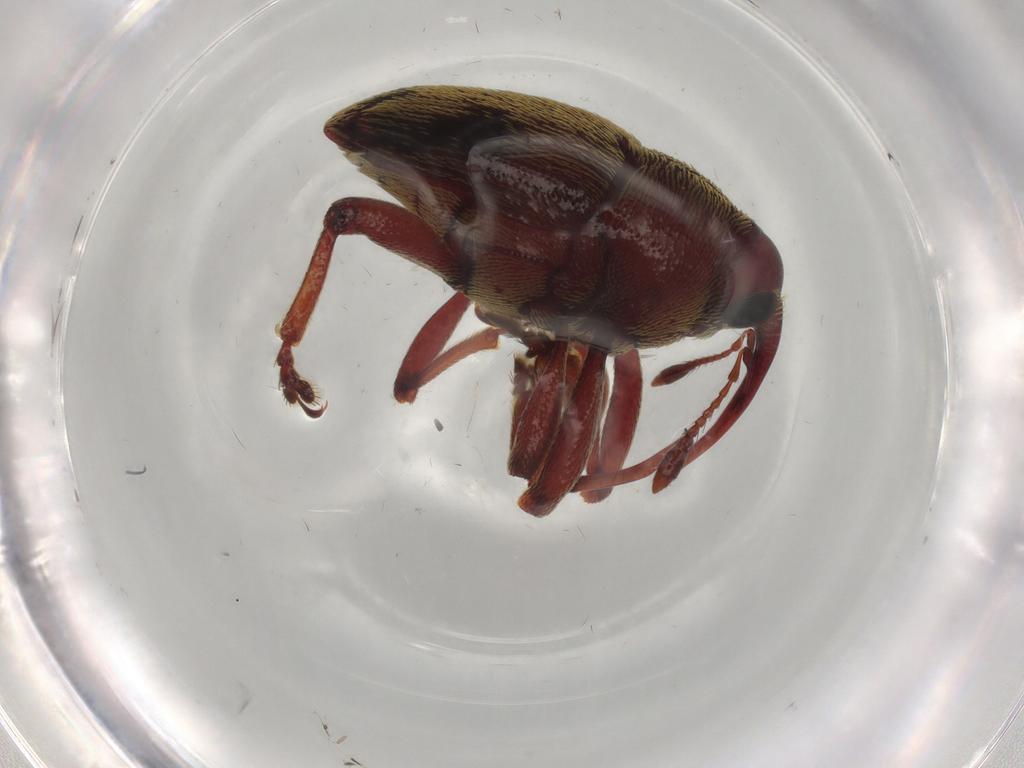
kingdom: Animalia
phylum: Arthropoda
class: Insecta
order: Coleoptera
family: Curculionidae
